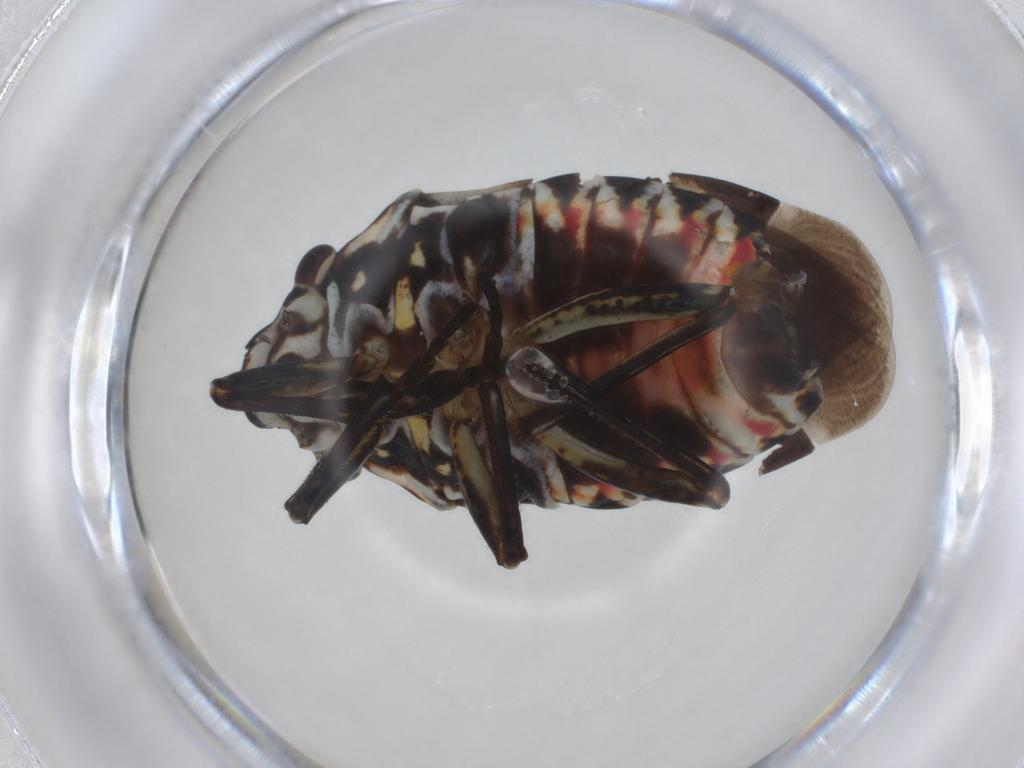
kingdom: Animalia
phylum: Arthropoda
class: Insecta
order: Hemiptera
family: Pentatomidae
